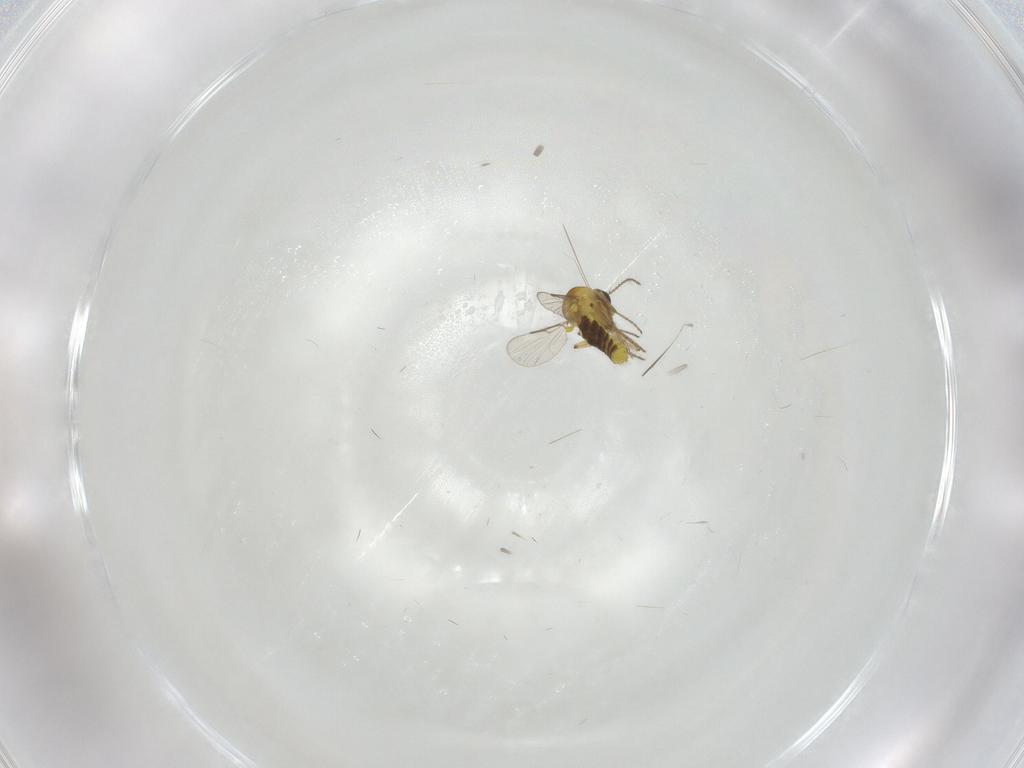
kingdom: Animalia
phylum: Arthropoda
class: Insecta
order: Diptera
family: Ceratopogonidae
